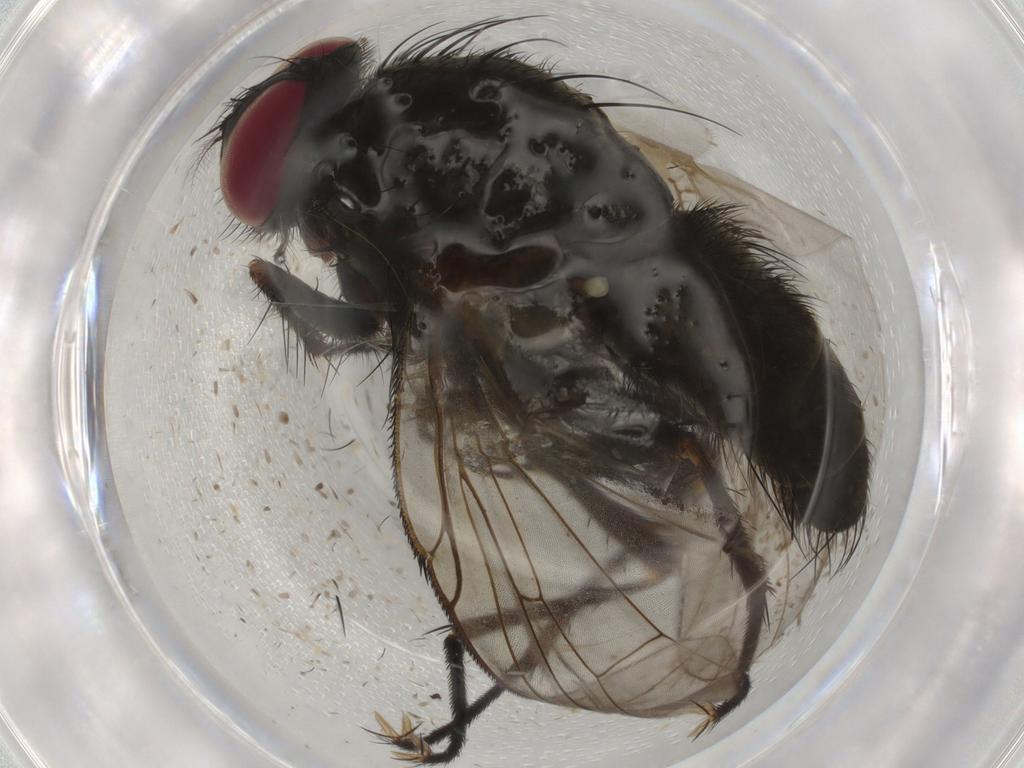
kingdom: Animalia
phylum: Arthropoda
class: Insecta
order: Diptera
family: Muscidae
